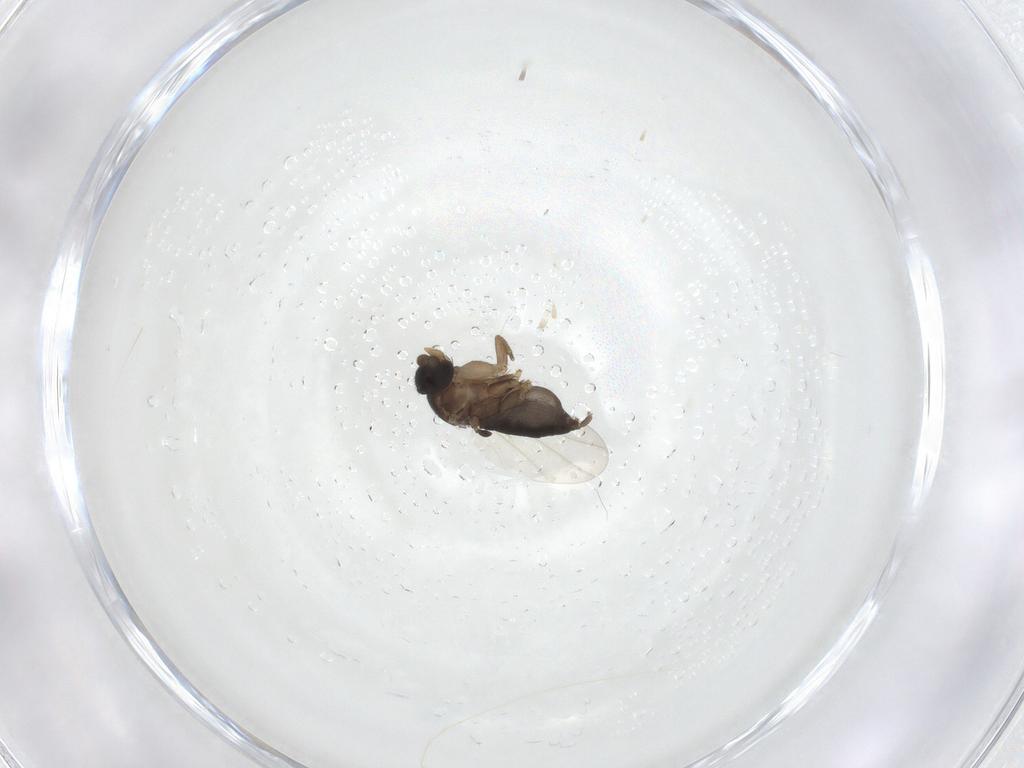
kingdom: Animalia
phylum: Arthropoda
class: Insecta
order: Diptera
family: Phoridae
